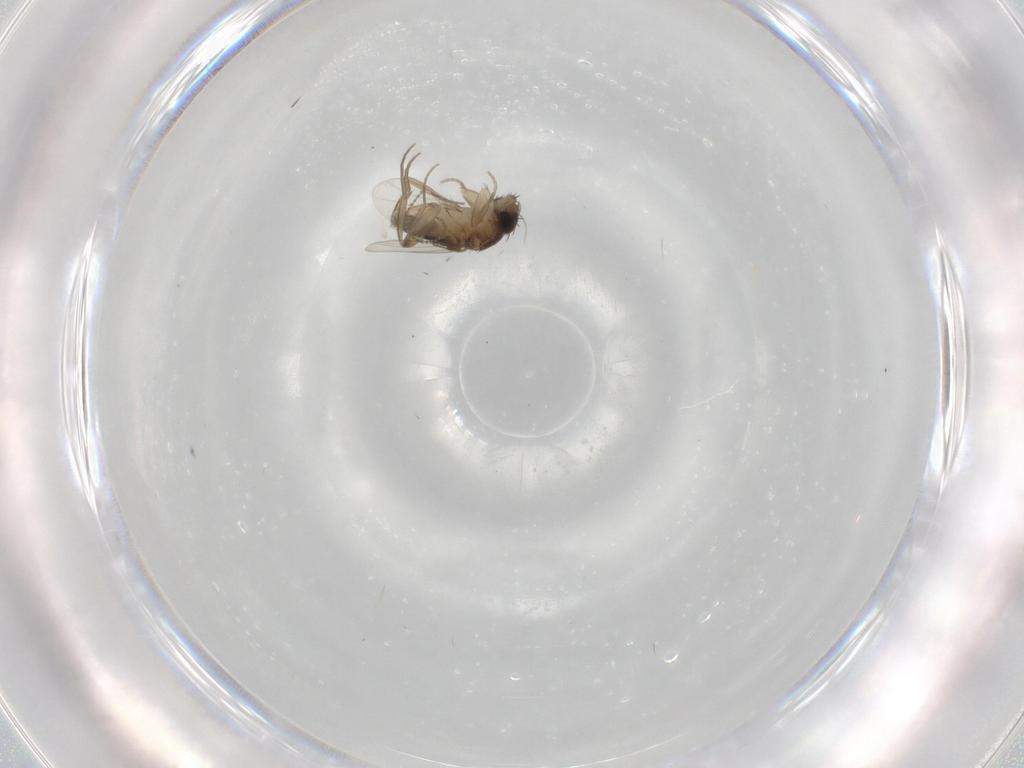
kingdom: Animalia
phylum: Arthropoda
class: Insecta
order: Diptera
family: Phoridae
